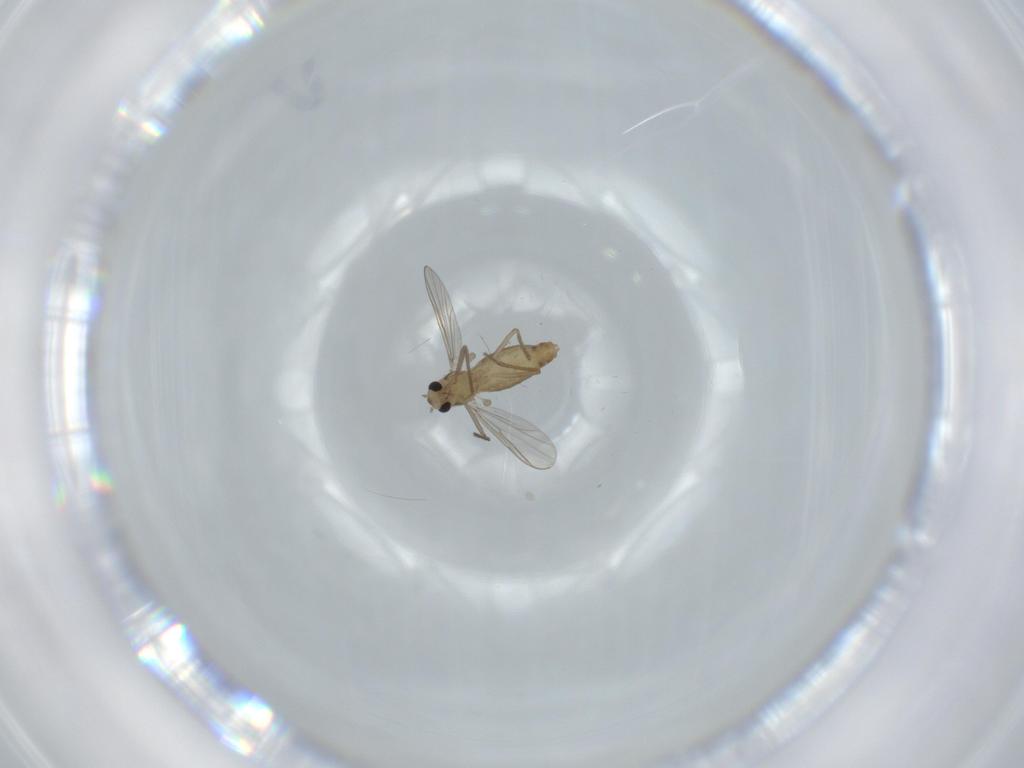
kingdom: Animalia
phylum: Arthropoda
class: Insecta
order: Diptera
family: Chironomidae
